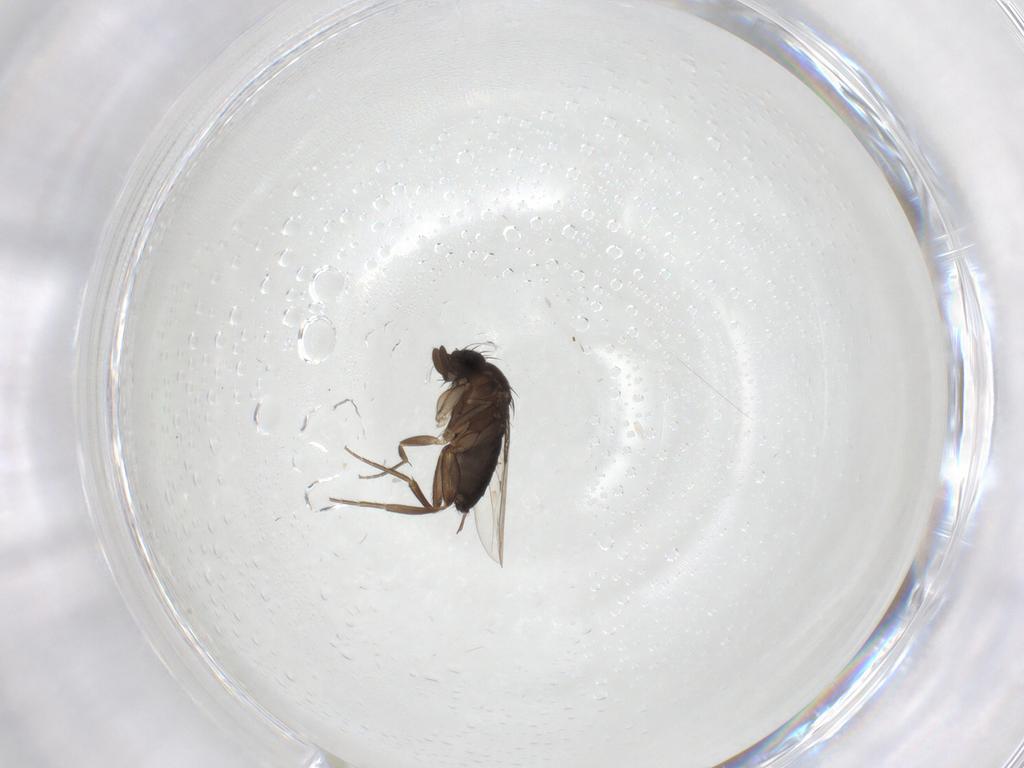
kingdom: Animalia
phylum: Arthropoda
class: Insecta
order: Diptera
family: Phoridae
